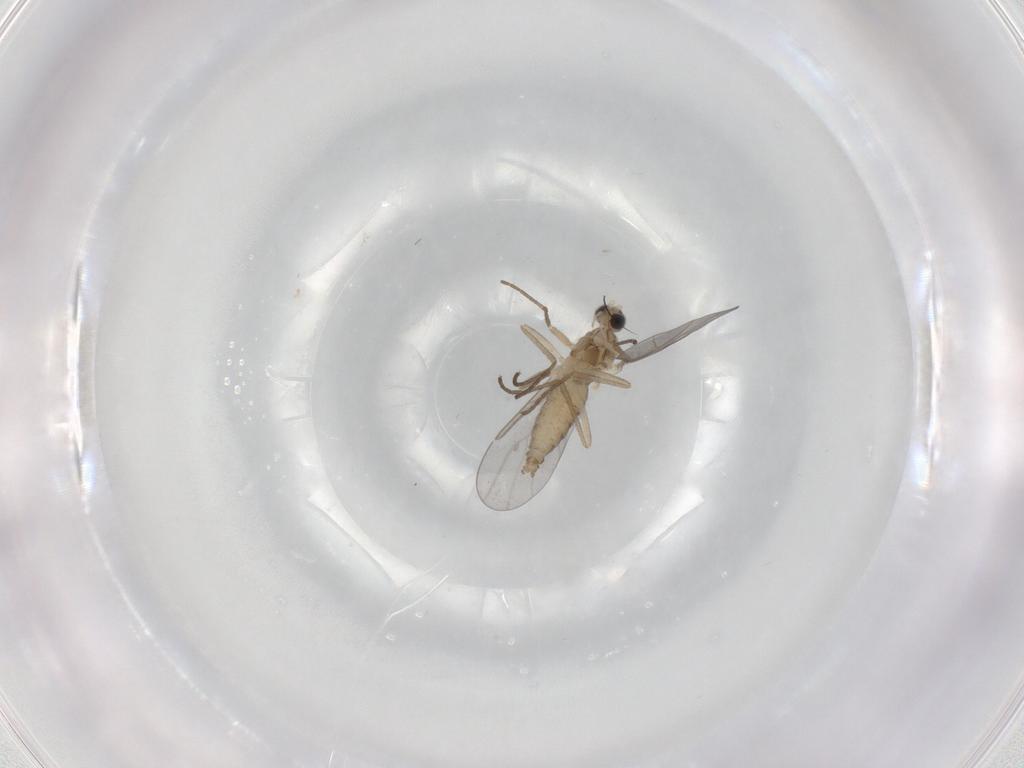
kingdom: Animalia
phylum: Arthropoda
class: Insecta
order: Diptera
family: Cecidomyiidae
